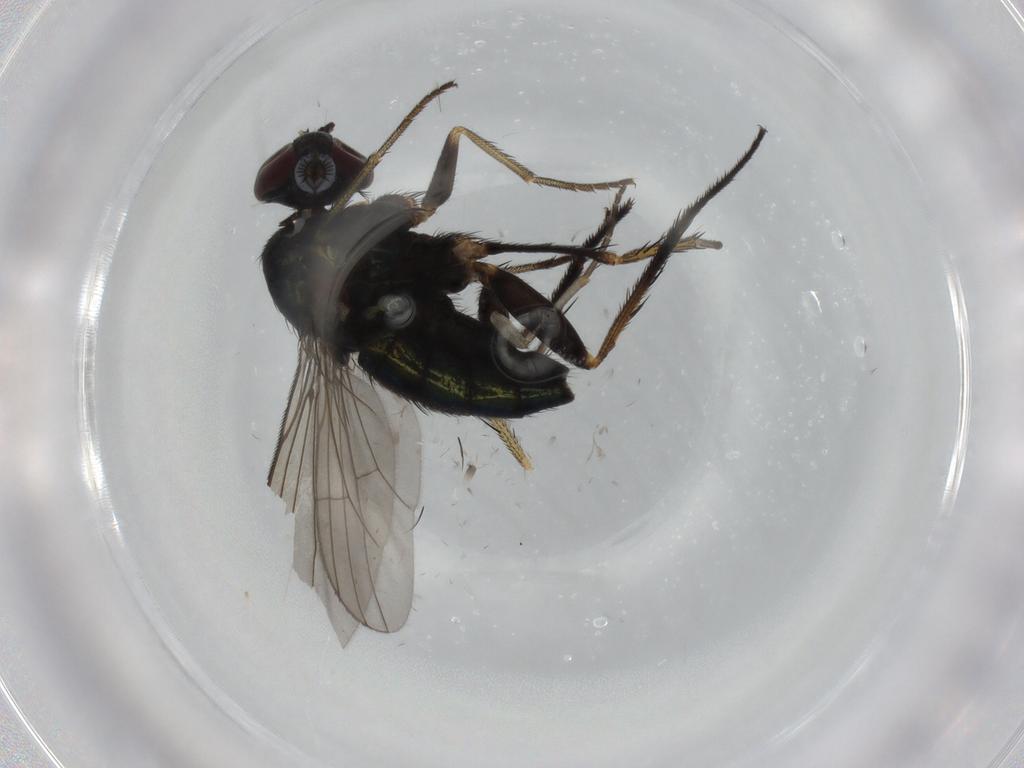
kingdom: Animalia
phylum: Arthropoda
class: Insecta
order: Diptera
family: Dolichopodidae
